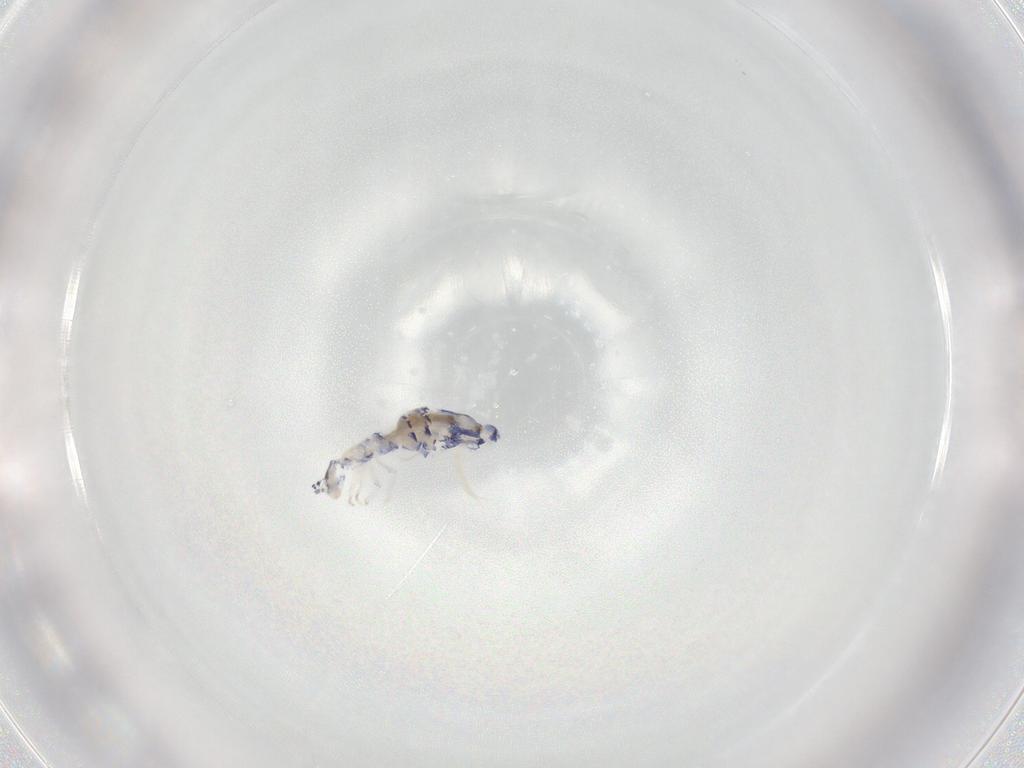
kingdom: Animalia
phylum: Arthropoda
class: Collembola
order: Entomobryomorpha
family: Entomobryidae
